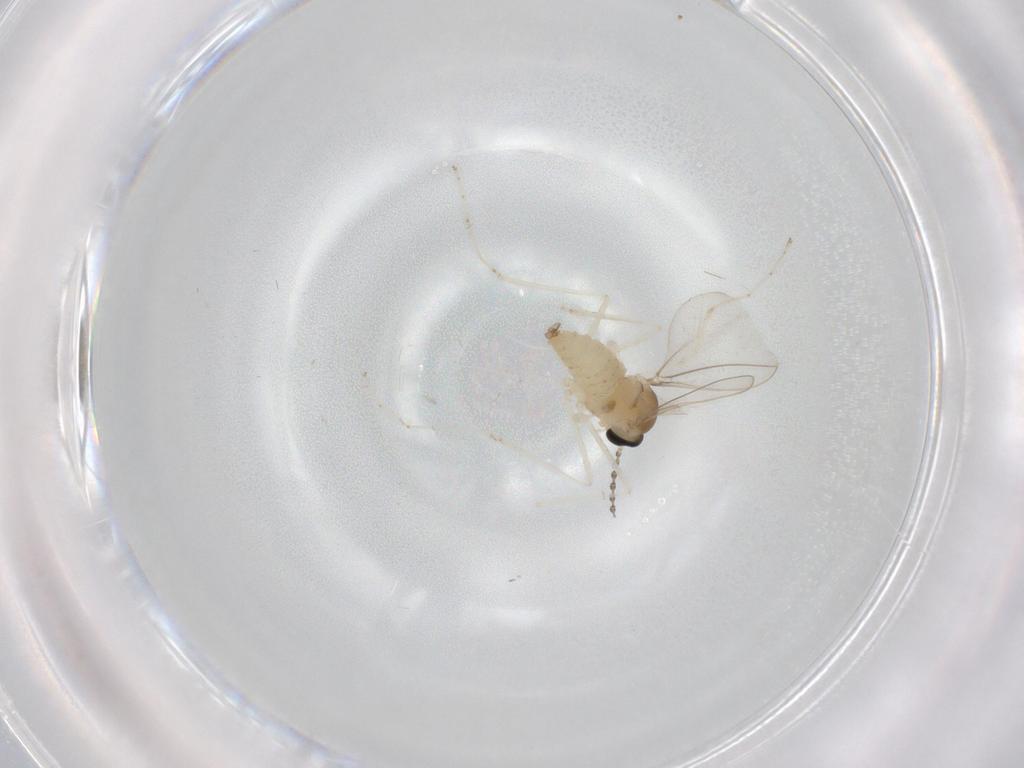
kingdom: Animalia
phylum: Arthropoda
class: Insecta
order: Diptera
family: Cecidomyiidae
